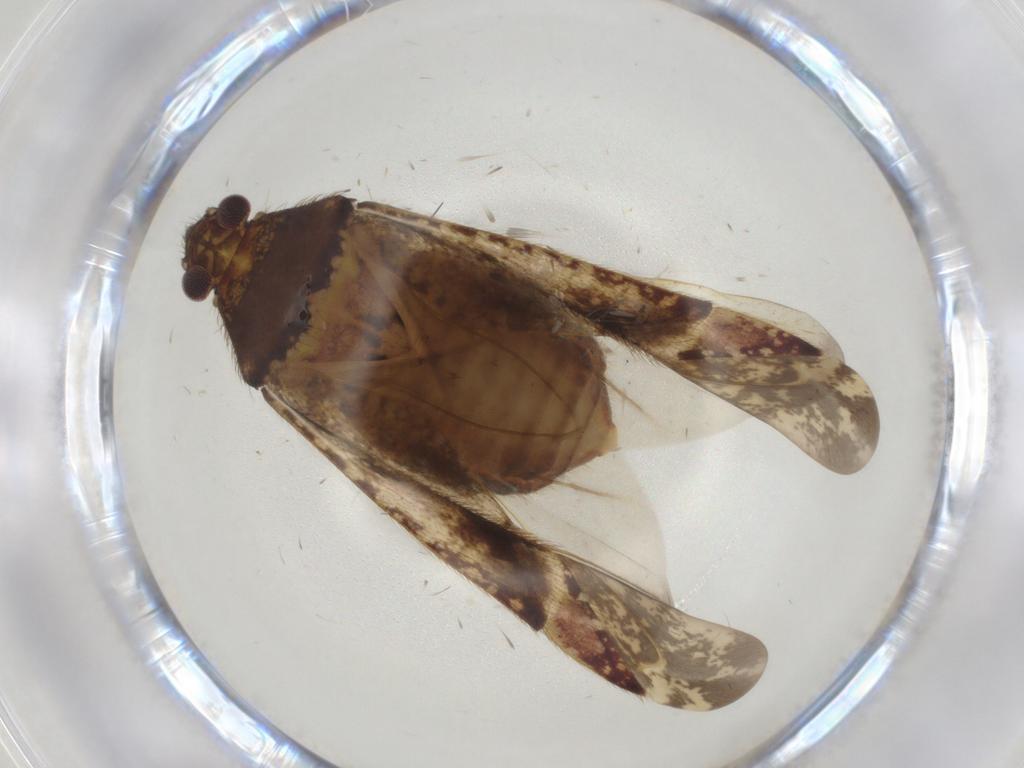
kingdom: Animalia
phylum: Arthropoda
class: Insecta
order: Hemiptera
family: Miridae
